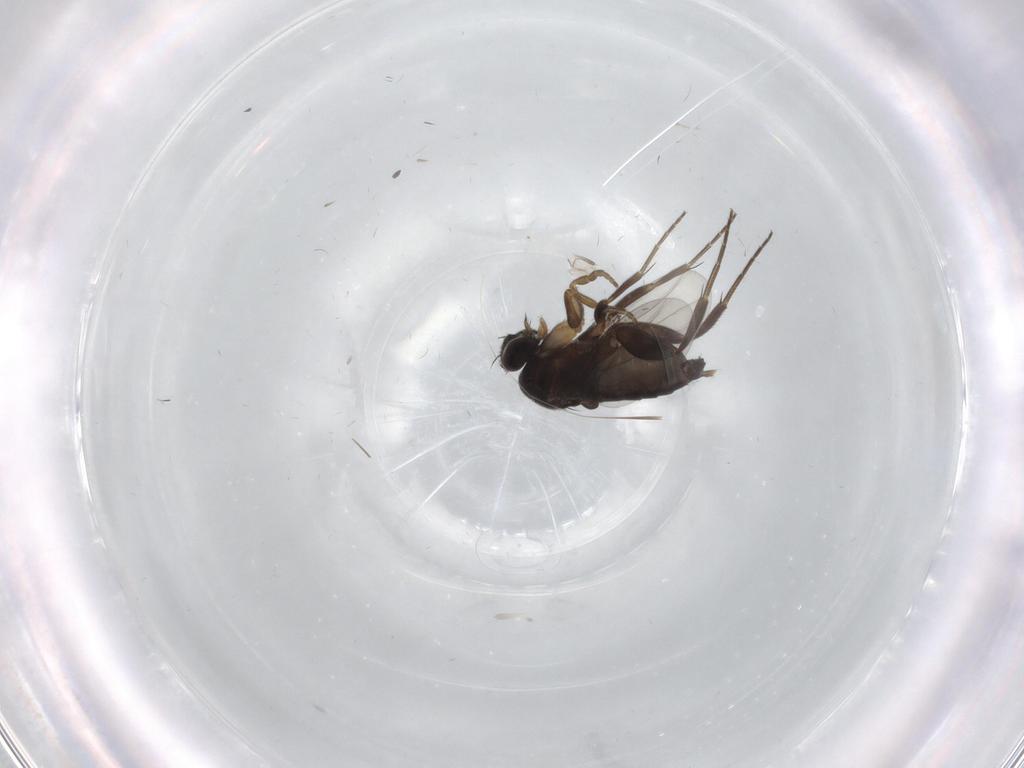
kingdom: Animalia
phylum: Arthropoda
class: Insecta
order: Diptera
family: Phoridae
